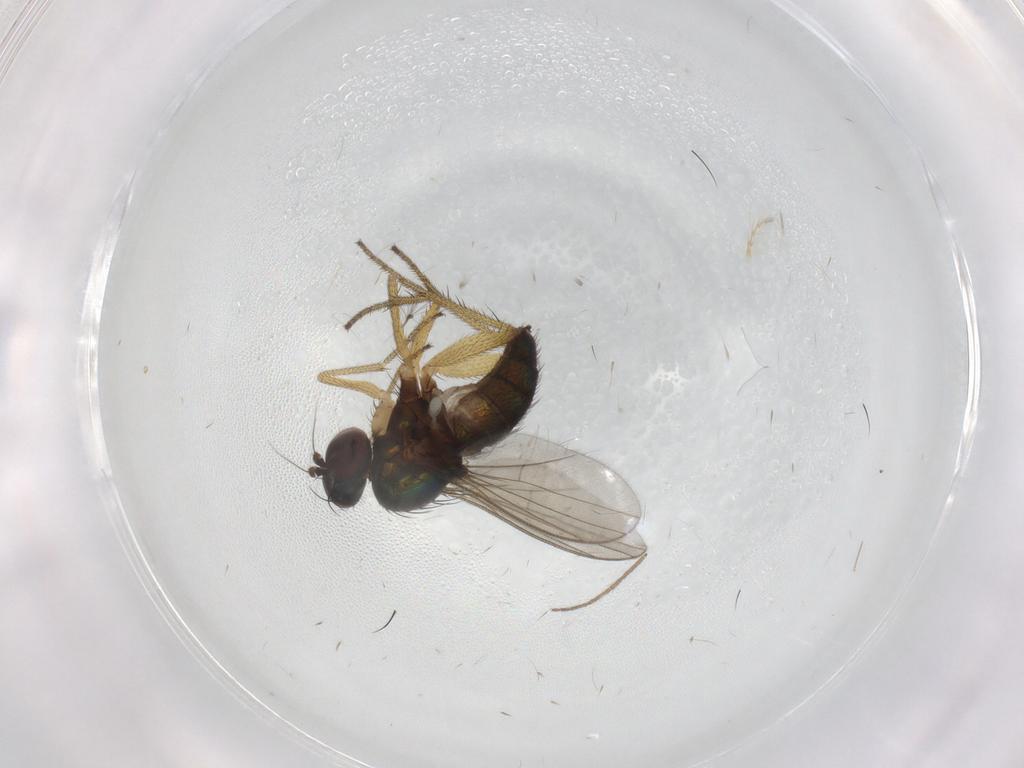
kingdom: Animalia
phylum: Arthropoda
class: Insecta
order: Diptera
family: Dolichopodidae
